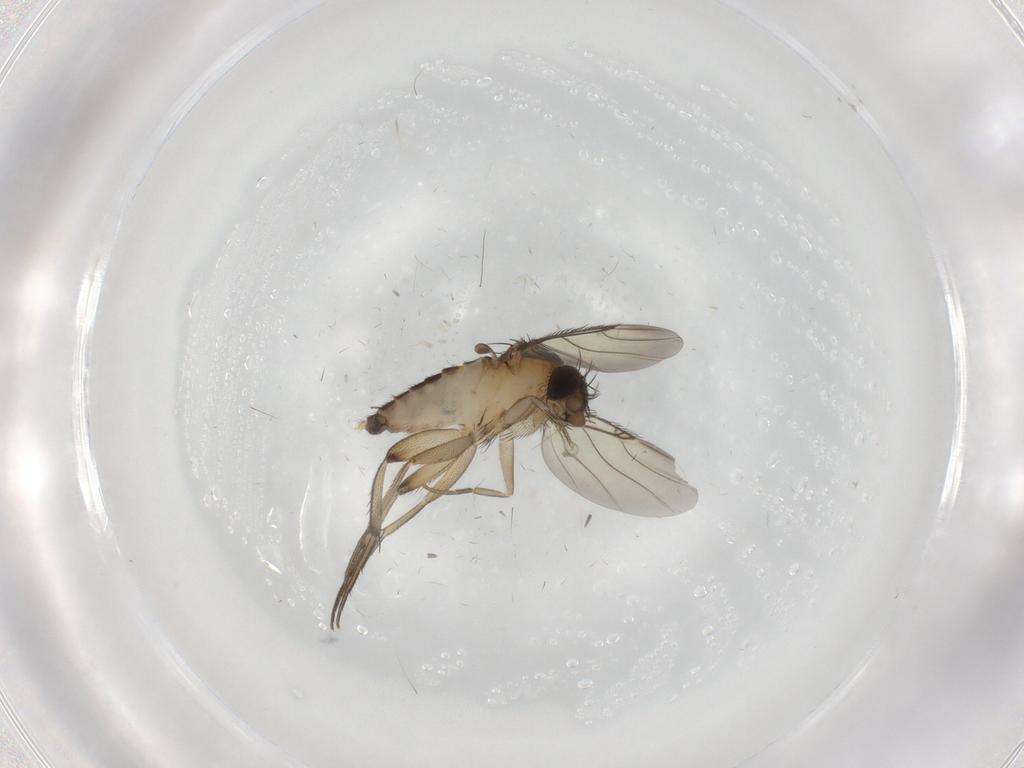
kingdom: Animalia
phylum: Arthropoda
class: Insecta
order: Diptera
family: Phoridae
